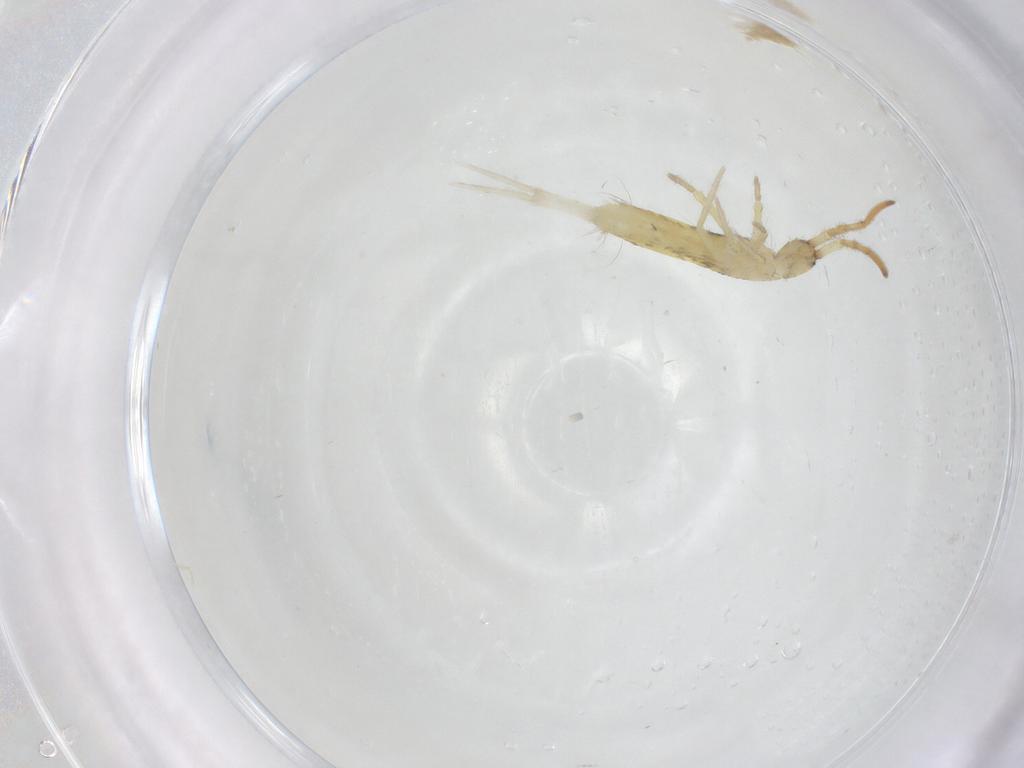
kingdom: Animalia
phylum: Arthropoda
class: Collembola
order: Entomobryomorpha
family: Entomobryidae
